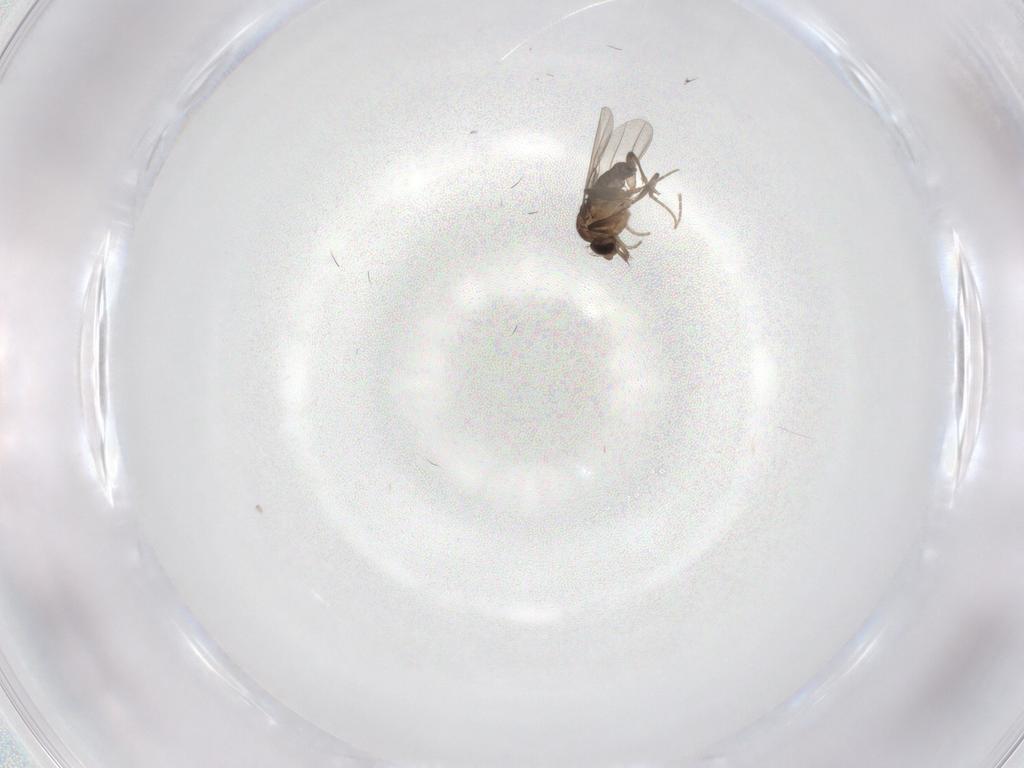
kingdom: Animalia
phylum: Arthropoda
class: Insecta
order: Diptera
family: Phoridae
